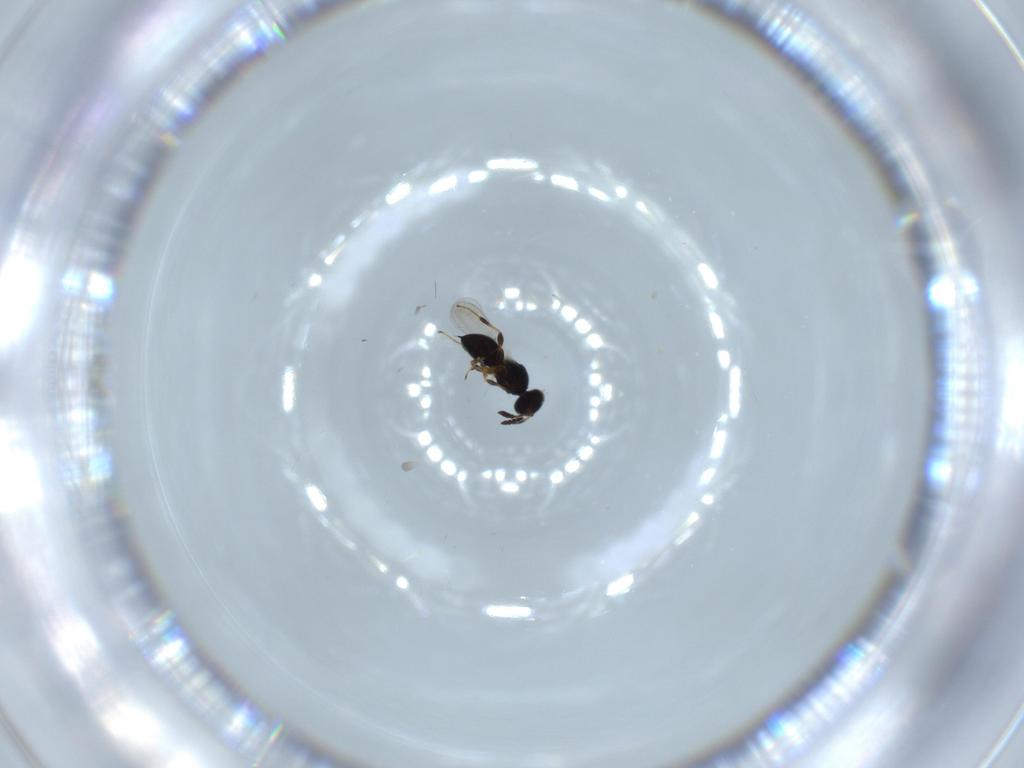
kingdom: Animalia
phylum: Arthropoda
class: Insecta
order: Hymenoptera
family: Platygastridae
